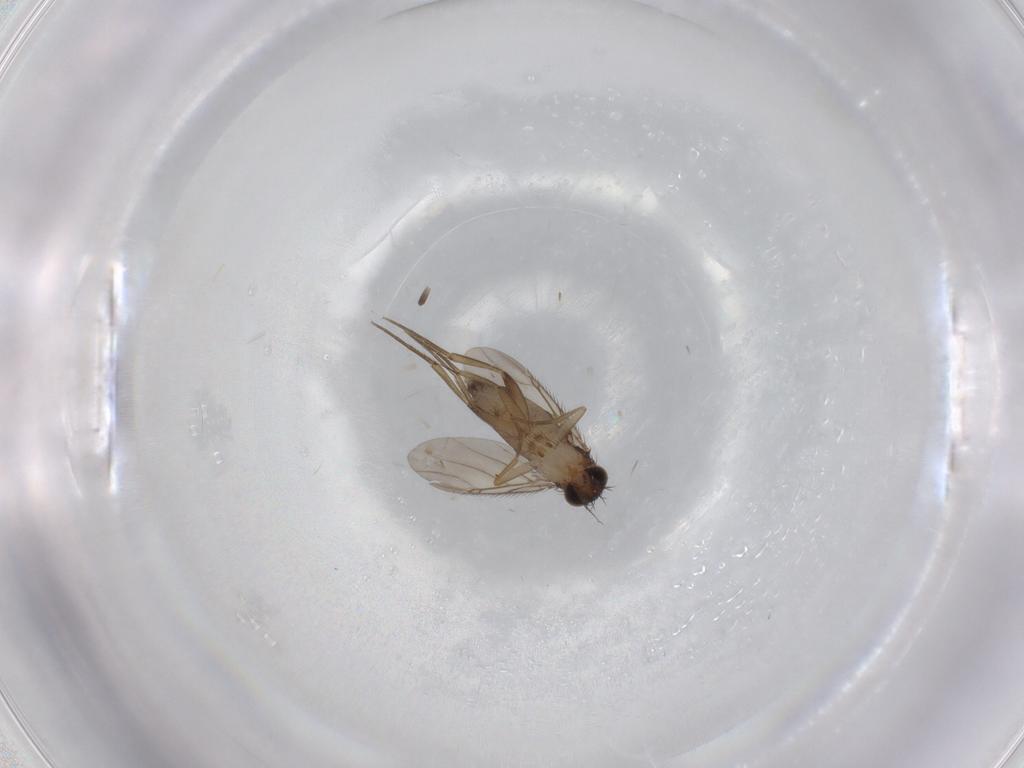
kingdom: Animalia
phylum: Arthropoda
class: Insecta
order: Diptera
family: Phoridae
